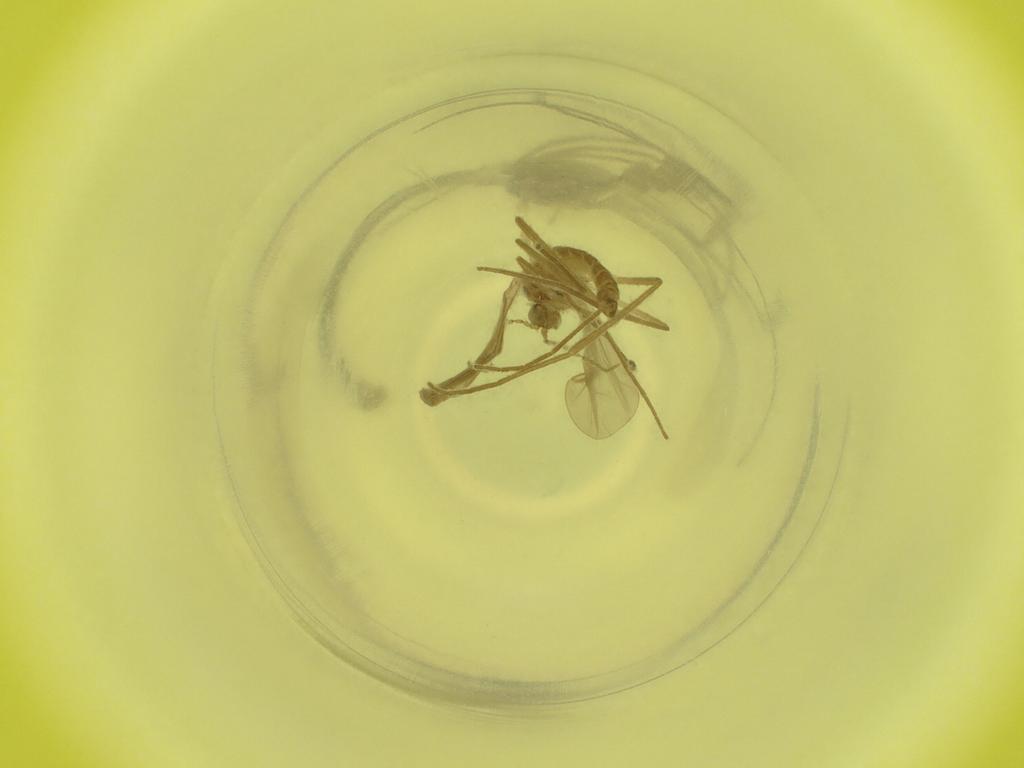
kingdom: Animalia
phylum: Arthropoda
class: Insecta
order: Diptera
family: Cecidomyiidae
